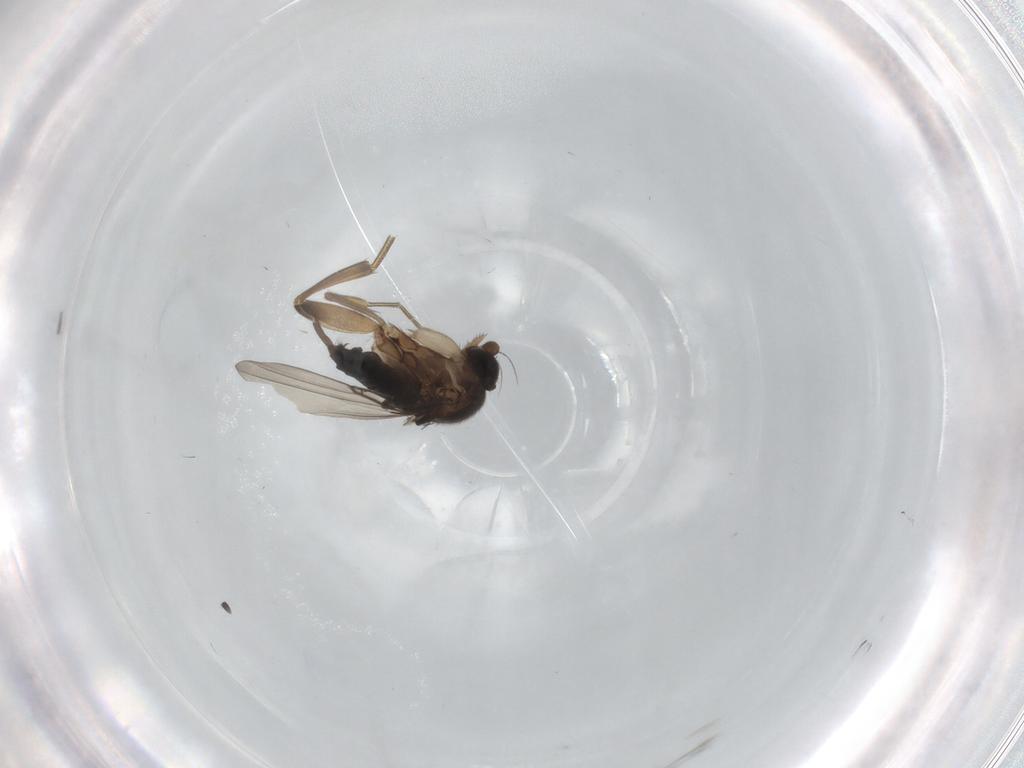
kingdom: Animalia
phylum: Arthropoda
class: Insecta
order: Diptera
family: Phoridae
